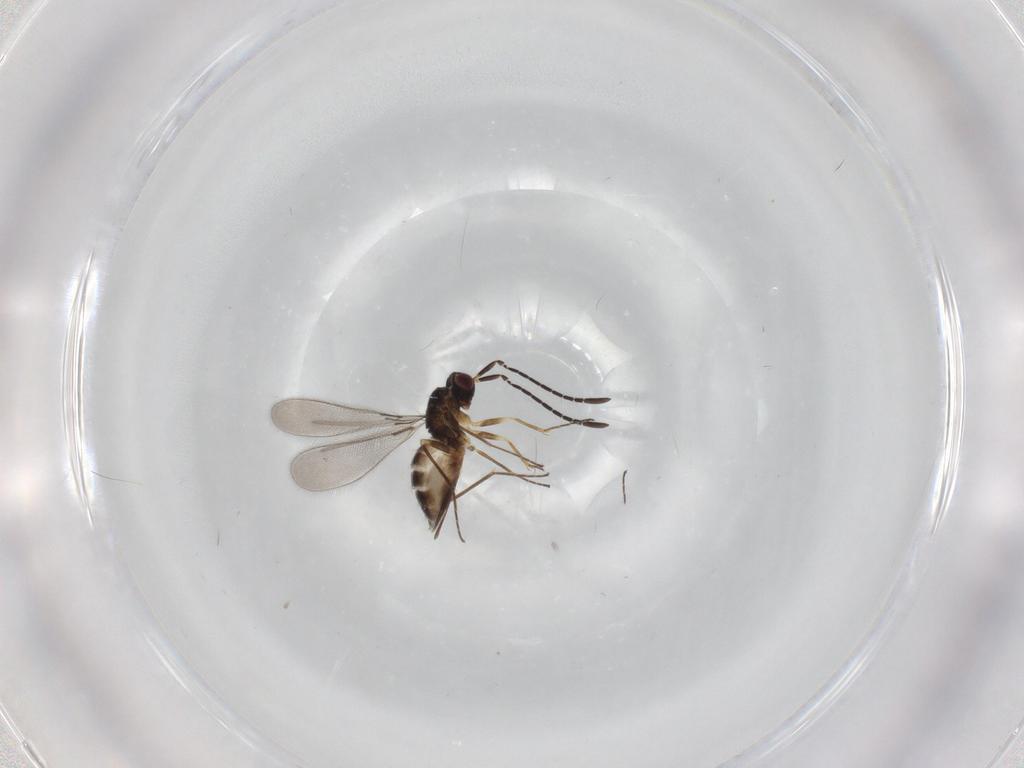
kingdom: Animalia
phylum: Arthropoda
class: Insecta
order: Hymenoptera
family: Mymaridae
